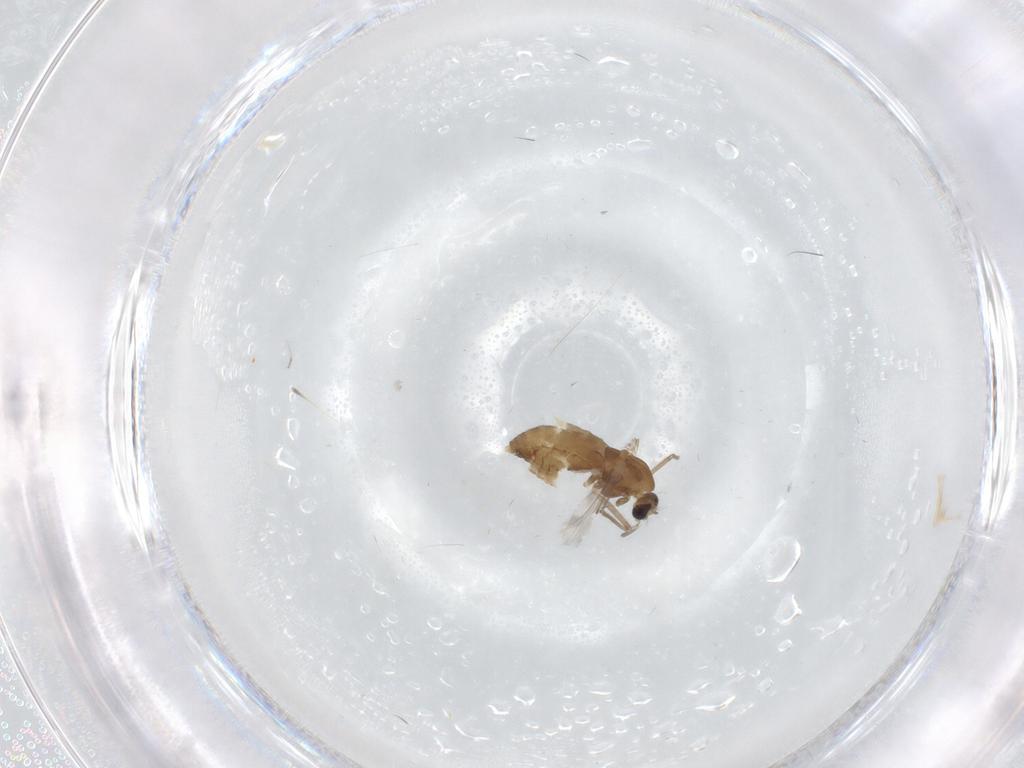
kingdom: Animalia
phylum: Arthropoda
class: Insecta
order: Diptera
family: Chironomidae
